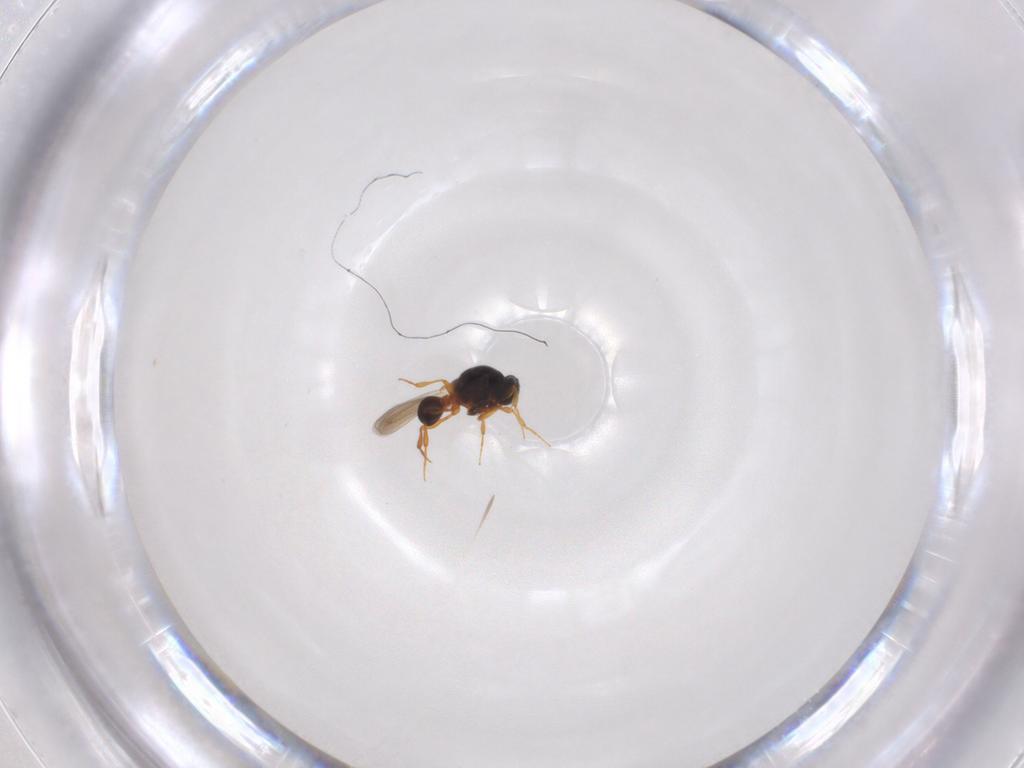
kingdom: Animalia
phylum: Arthropoda
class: Insecta
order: Hymenoptera
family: Platygastridae
